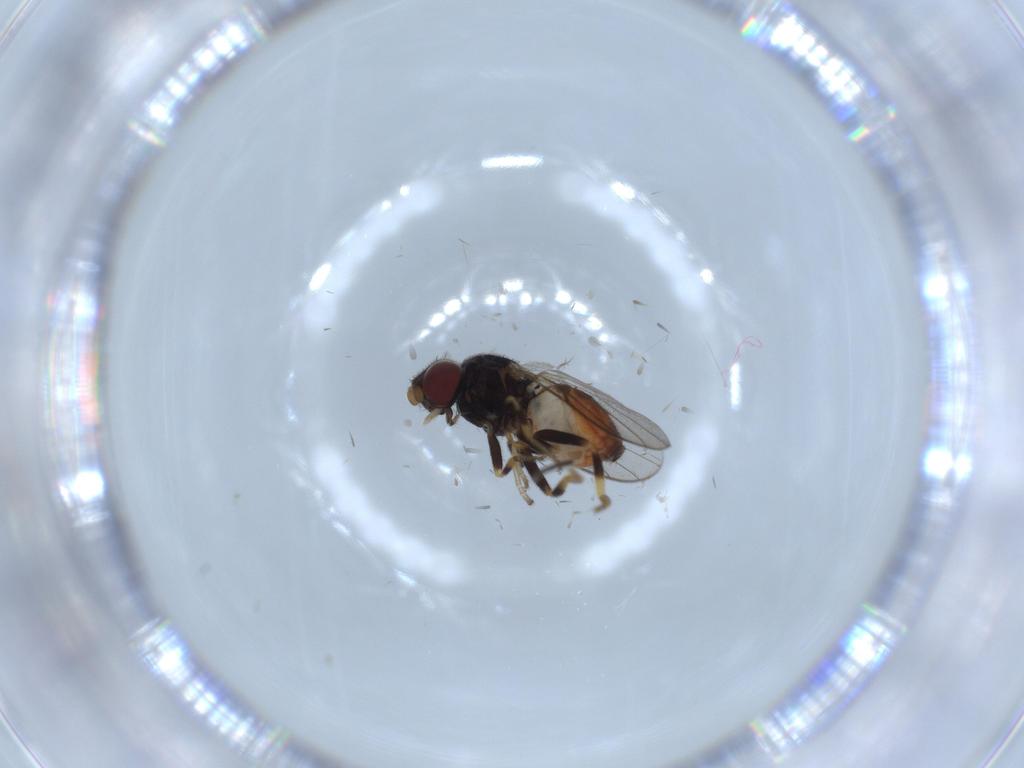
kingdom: Animalia
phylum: Arthropoda
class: Insecta
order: Diptera
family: Chloropidae
